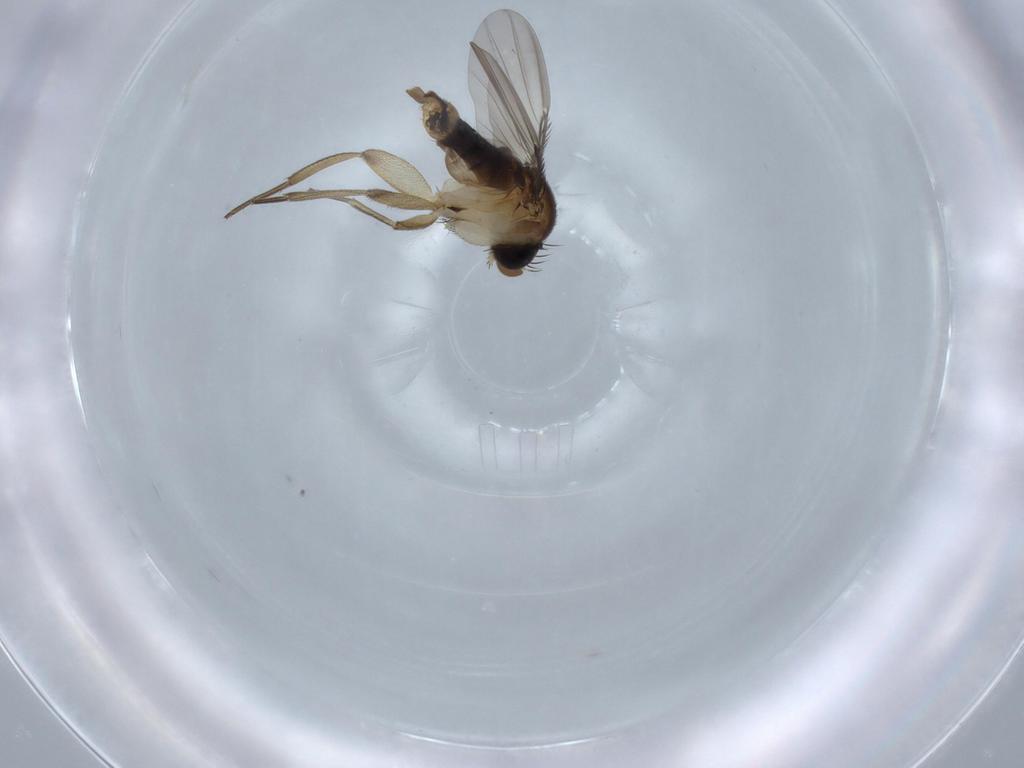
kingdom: Animalia
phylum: Arthropoda
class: Insecta
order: Diptera
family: Phoridae
